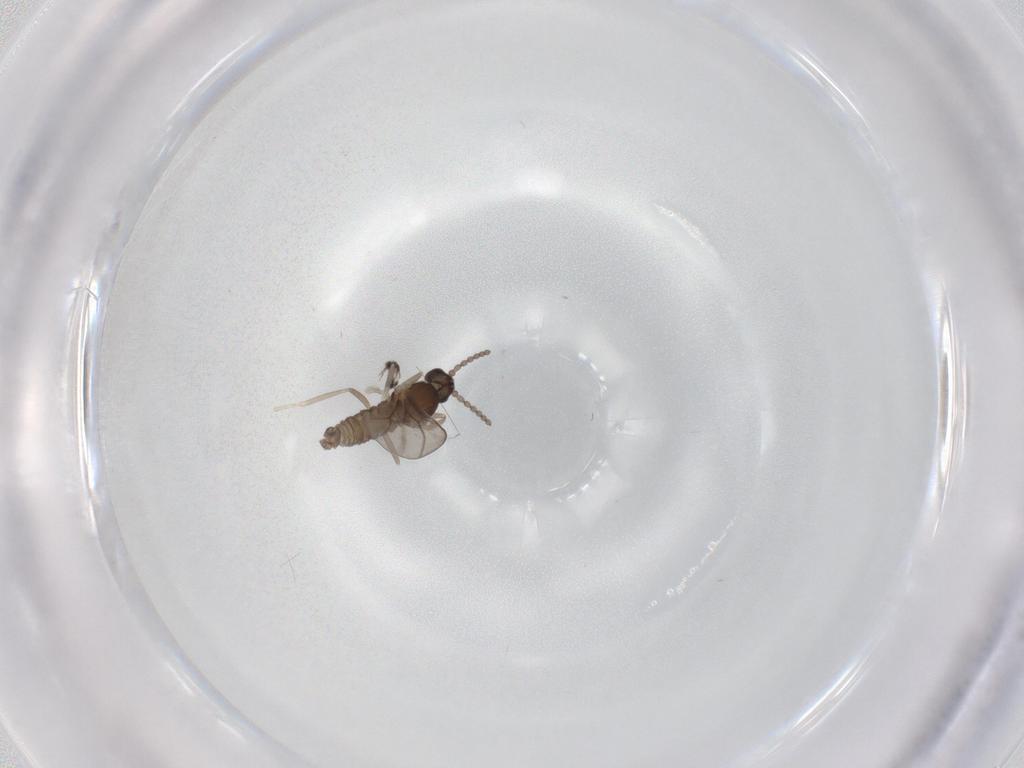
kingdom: Animalia
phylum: Arthropoda
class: Insecta
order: Diptera
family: Cecidomyiidae
